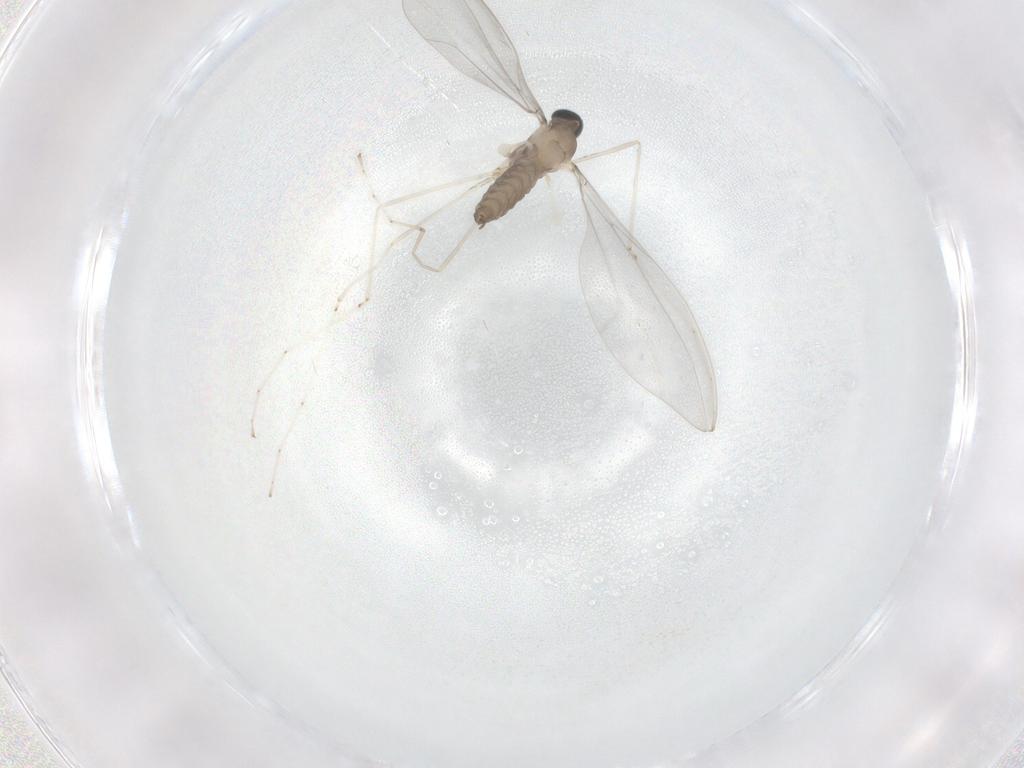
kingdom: Animalia
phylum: Arthropoda
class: Insecta
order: Diptera
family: Cecidomyiidae
